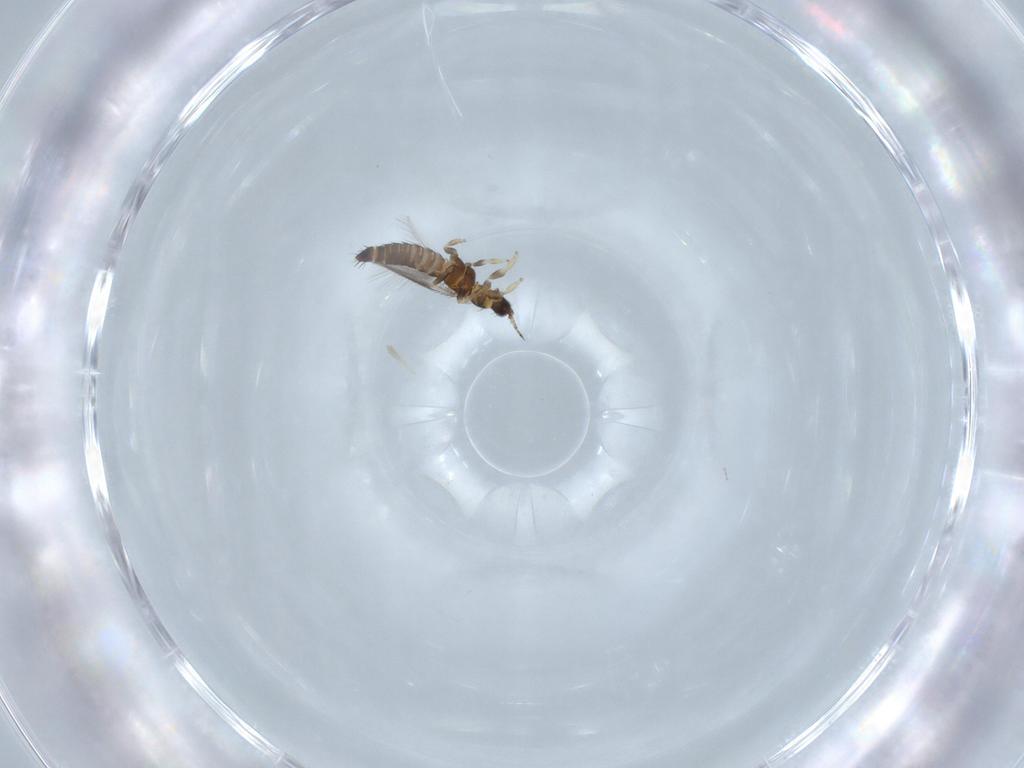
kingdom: Animalia
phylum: Arthropoda
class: Insecta
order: Thysanoptera
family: Thripidae
